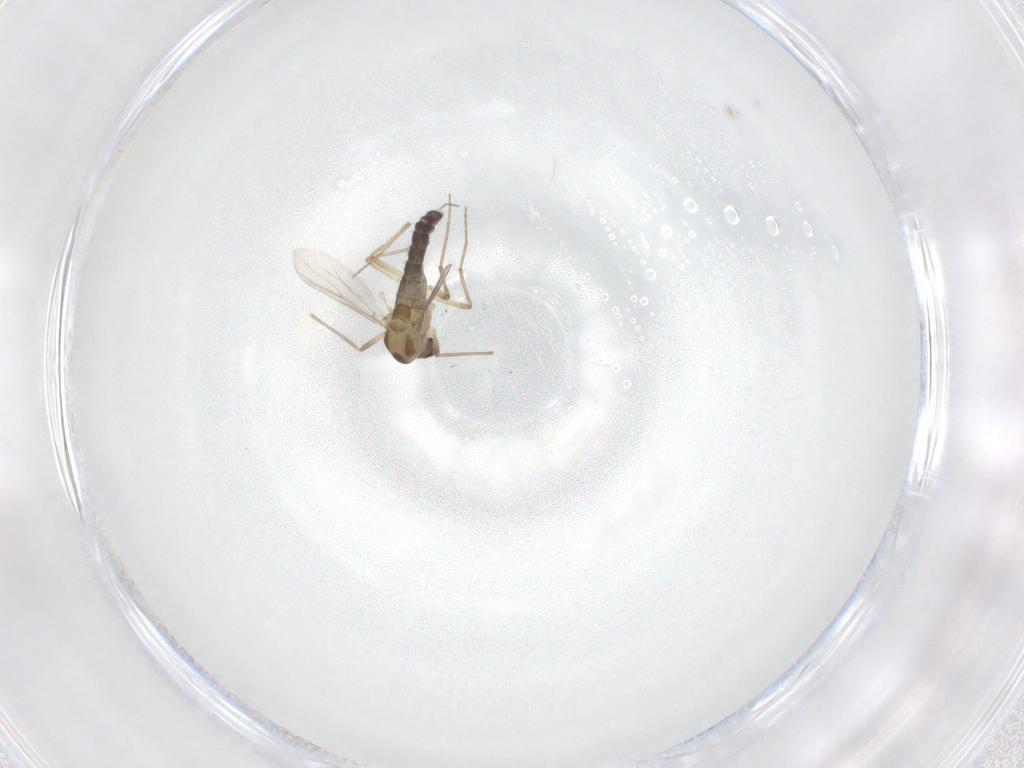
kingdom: Animalia
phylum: Arthropoda
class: Insecta
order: Diptera
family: Chironomidae
